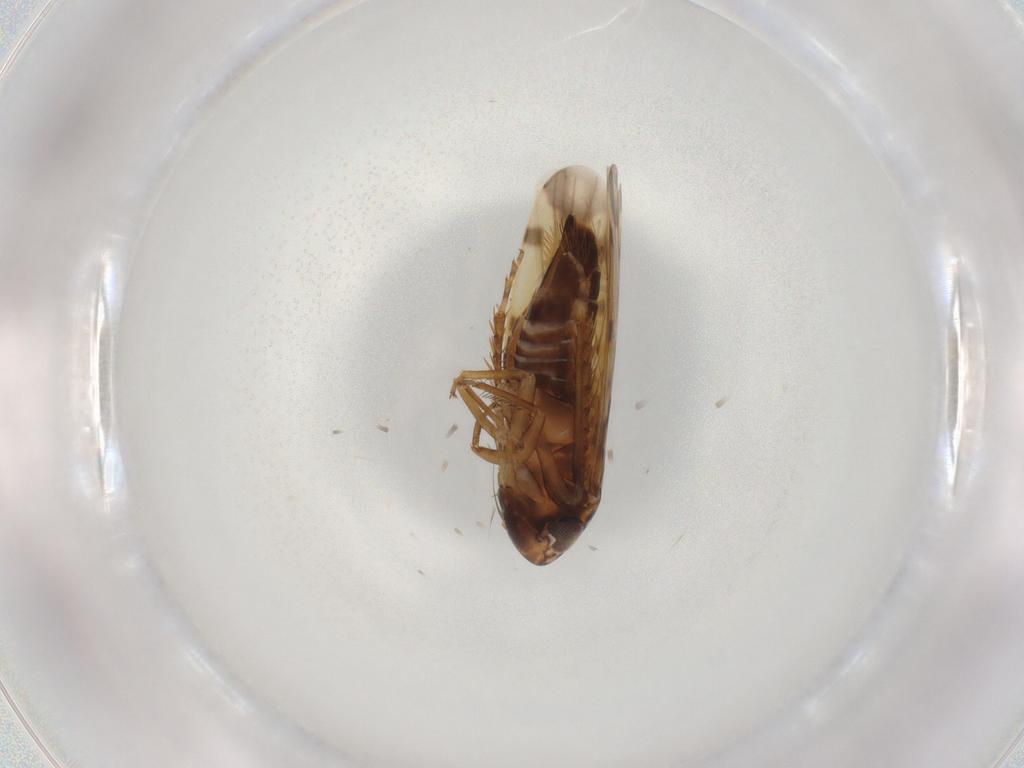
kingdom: Animalia
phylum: Arthropoda
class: Insecta
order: Hemiptera
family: Cicadellidae
